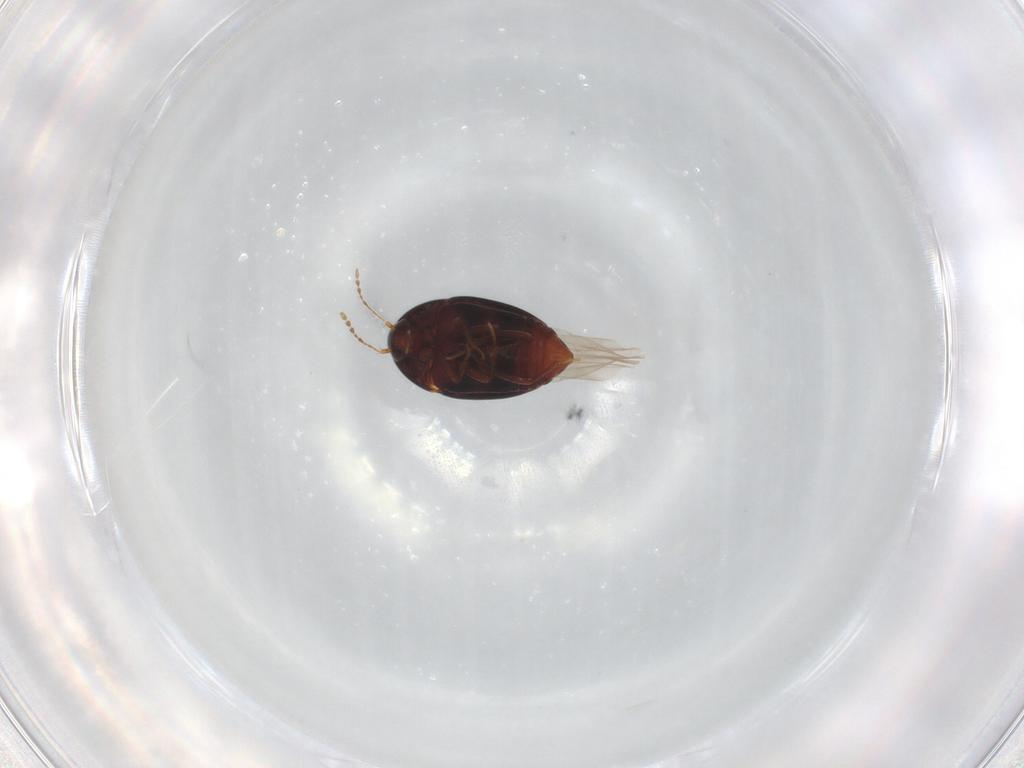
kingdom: Animalia
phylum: Arthropoda
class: Insecta
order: Coleoptera
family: Staphylinidae
